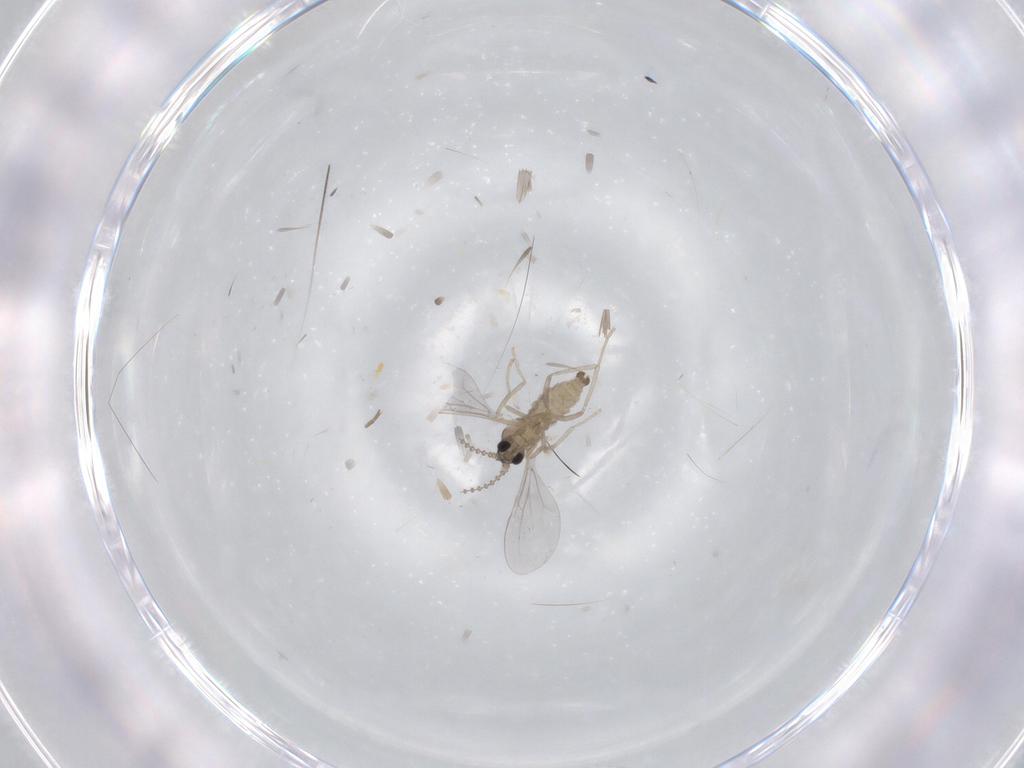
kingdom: Animalia
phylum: Arthropoda
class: Insecta
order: Diptera
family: Cecidomyiidae
